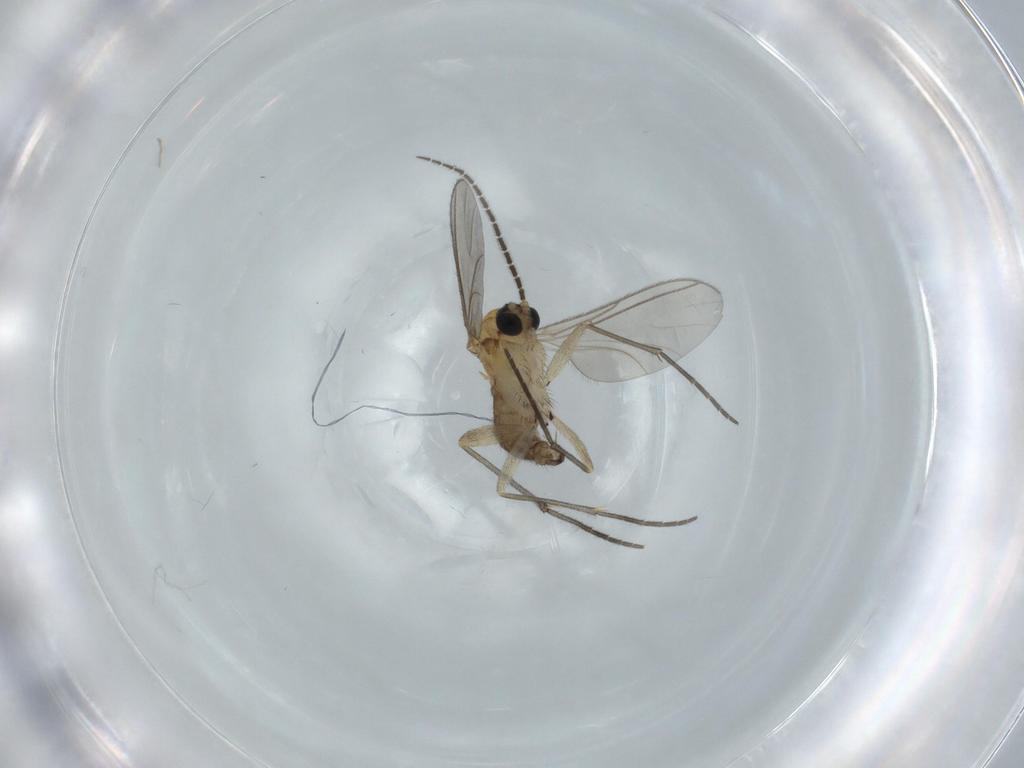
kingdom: Animalia
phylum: Arthropoda
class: Insecta
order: Diptera
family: Sciaridae
